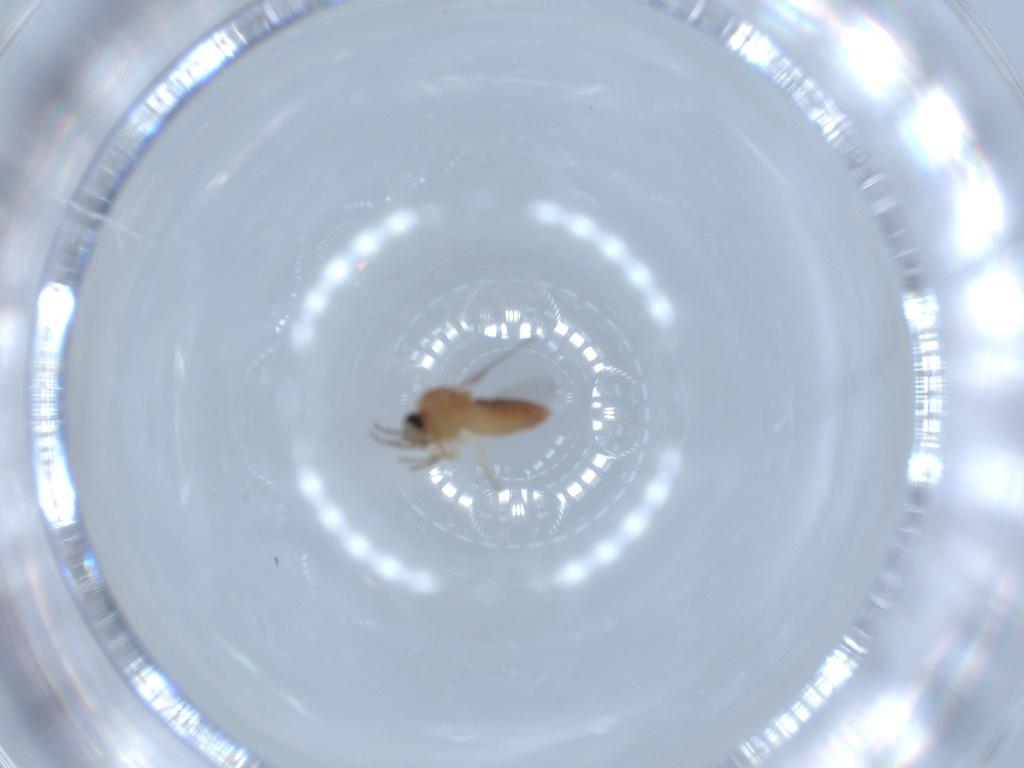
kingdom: Animalia
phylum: Arthropoda
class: Insecta
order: Diptera
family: Ceratopogonidae
